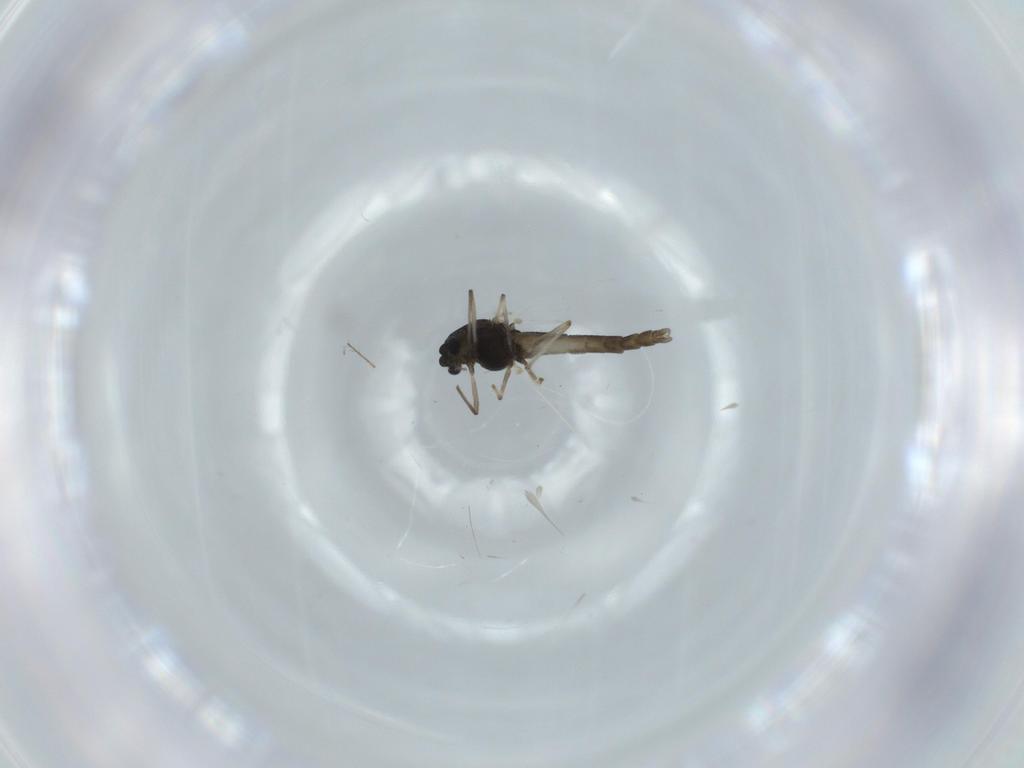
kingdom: Animalia
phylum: Arthropoda
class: Insecta
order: Diptera
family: Chironomidae
